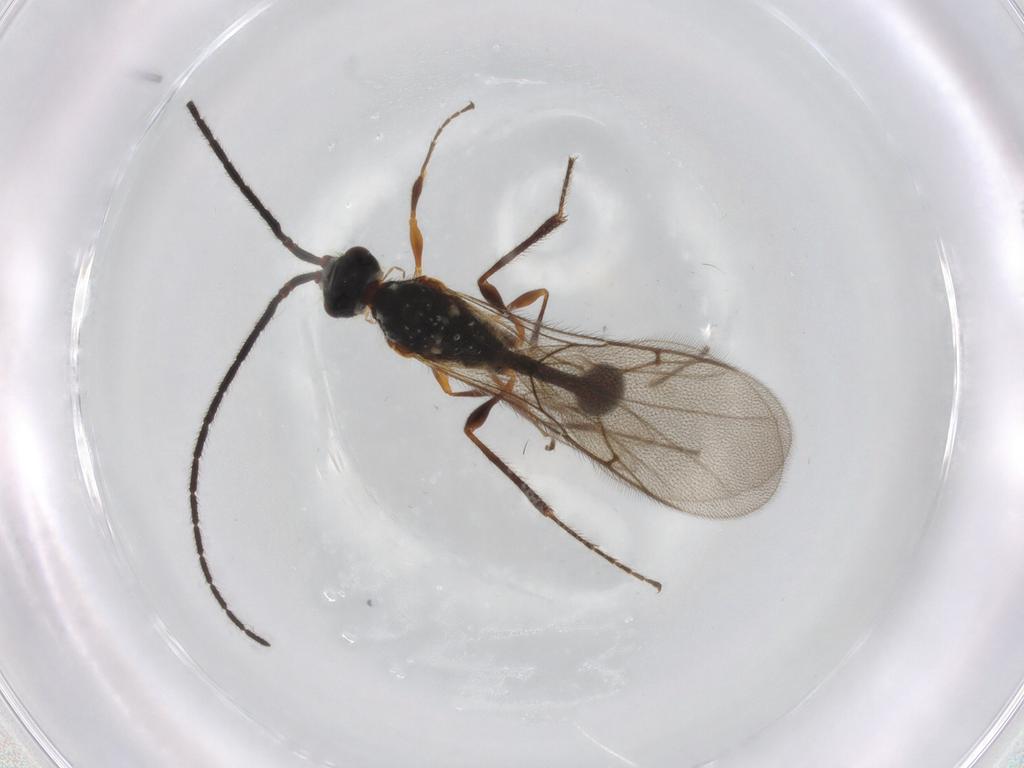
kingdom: Animalia
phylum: Arthropoda
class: Insecta
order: Hymenoptera
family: Diapriidae
